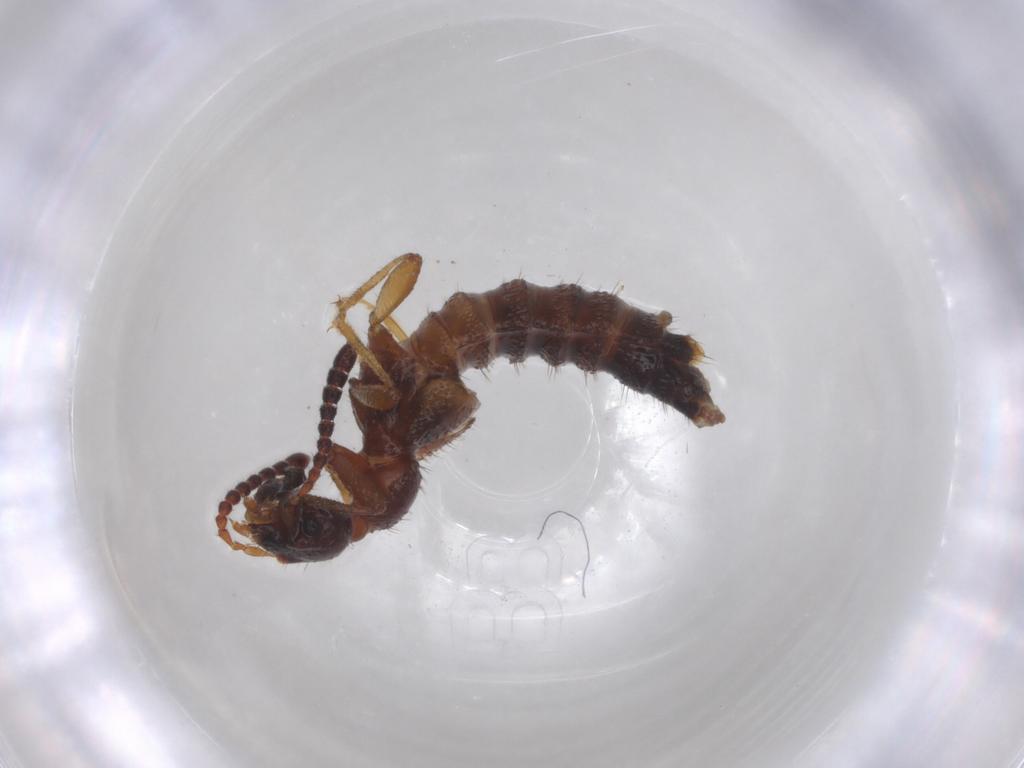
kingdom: Animalia
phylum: Arthropoda
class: Insecta
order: Coleoptera
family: Staphylinidae
